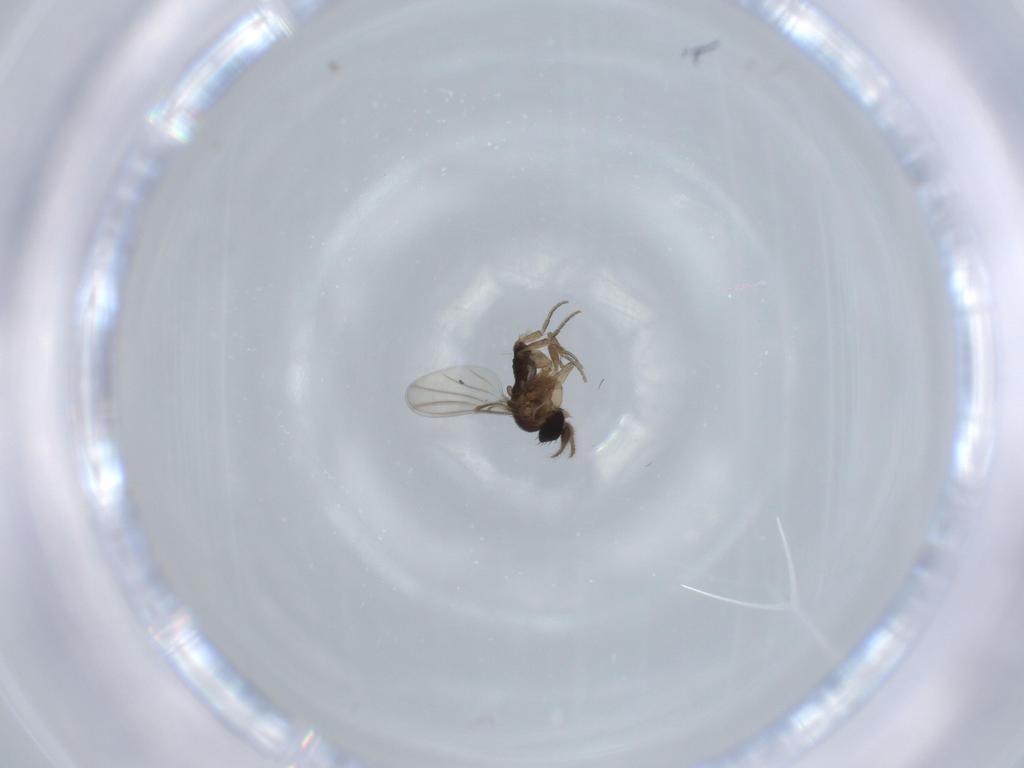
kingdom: Animalia
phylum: Arthropoda
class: Insecta
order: Diptera
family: Phoridae
